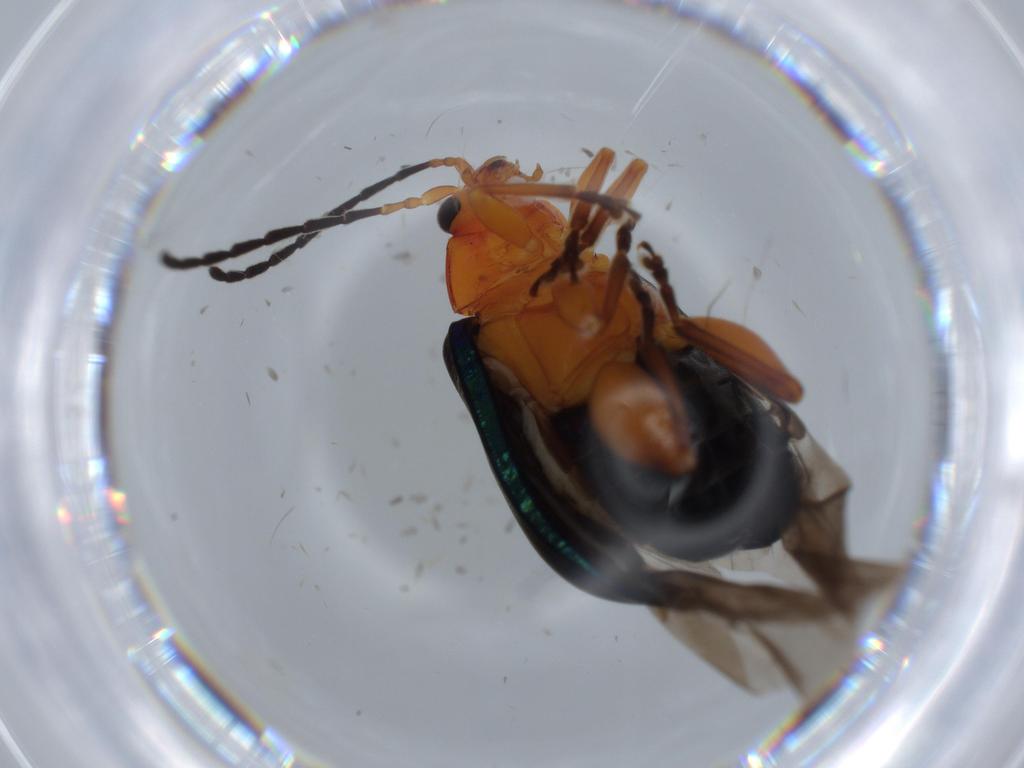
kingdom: Animalia
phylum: Arthropoda
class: Insecta
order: Coleoptera
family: Chrysomelidae
